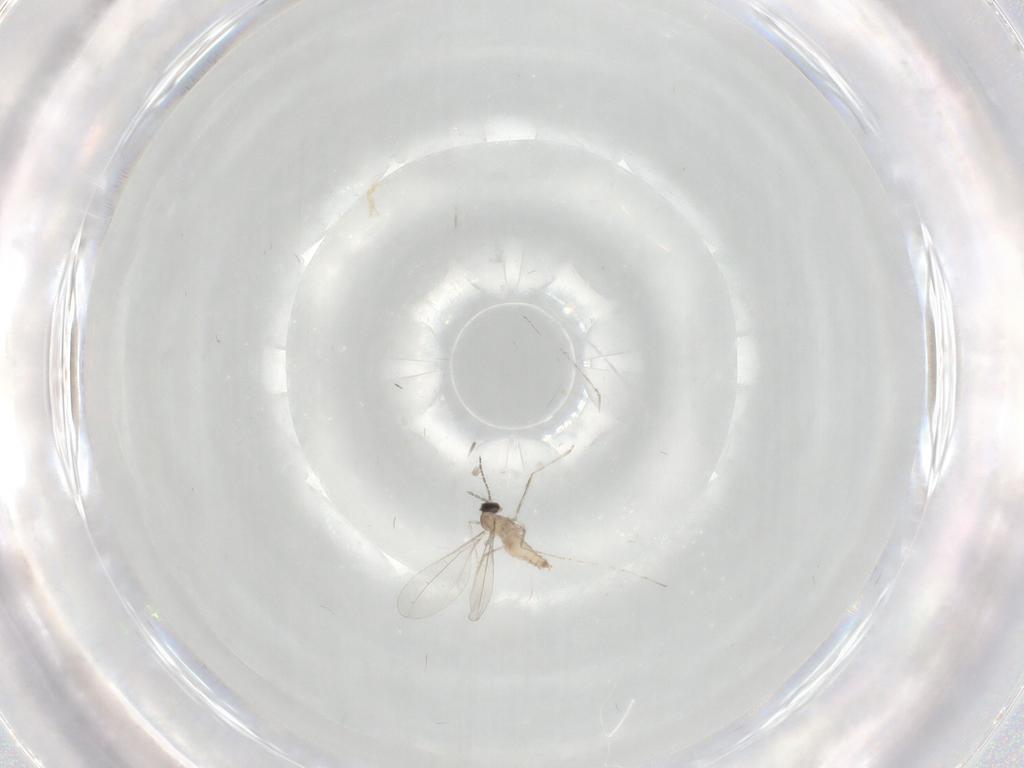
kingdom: Animalia
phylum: Arthropoda
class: Insecta
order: Diptera
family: Cecidomyiidae
